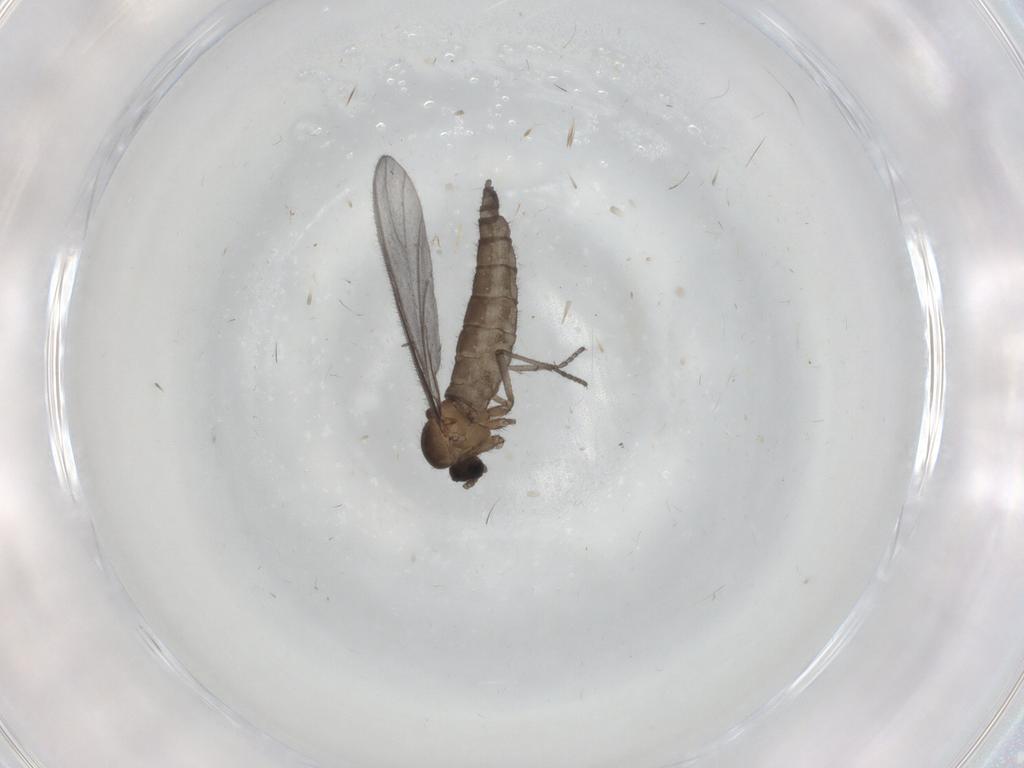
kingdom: Animalia
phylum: Arthropoda
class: Insecta
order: Diptera
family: Sciaridae
